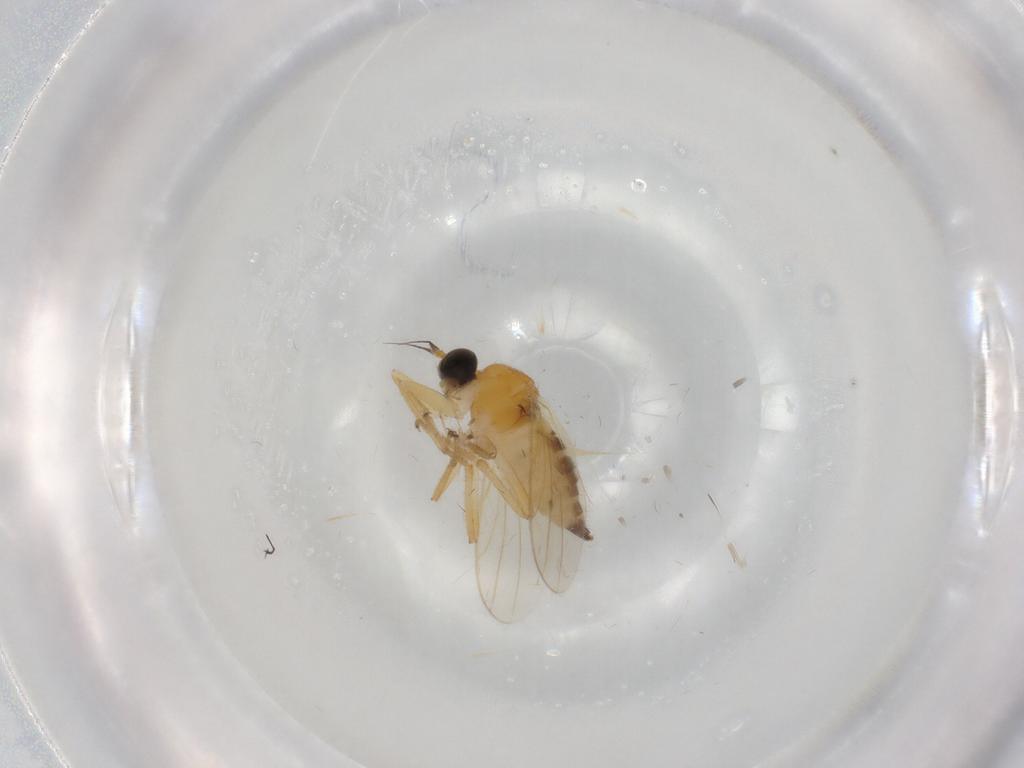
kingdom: Animalia
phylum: Arthropoda
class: Insecta
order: Diptera
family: Hybotidae
